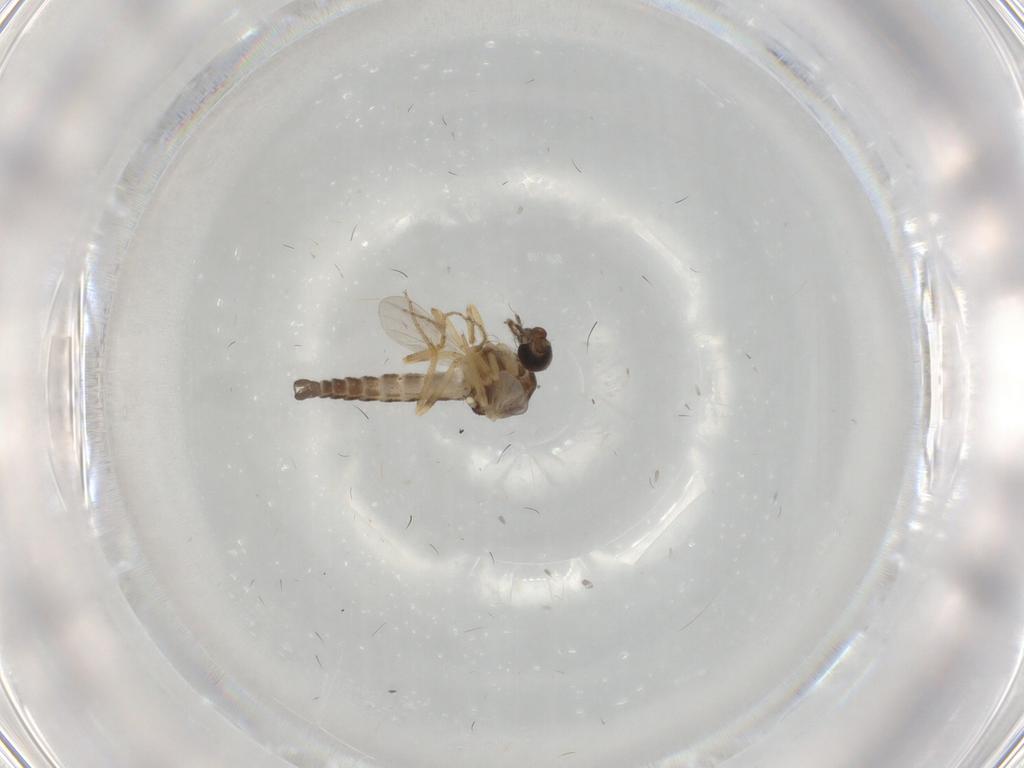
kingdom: Animalia
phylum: Arthropoda
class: Insecta
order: Diptera
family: Ceratopogonidae
